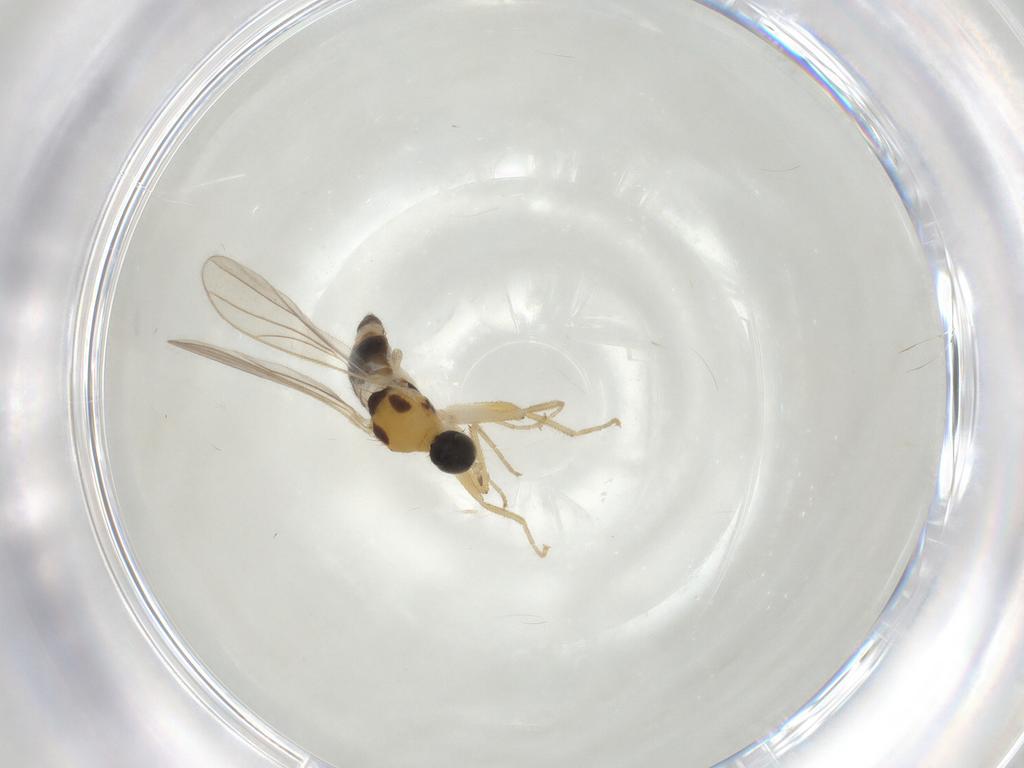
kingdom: Animalia
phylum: Arthropoda
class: Insecta
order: Diptera
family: Hybotidae
